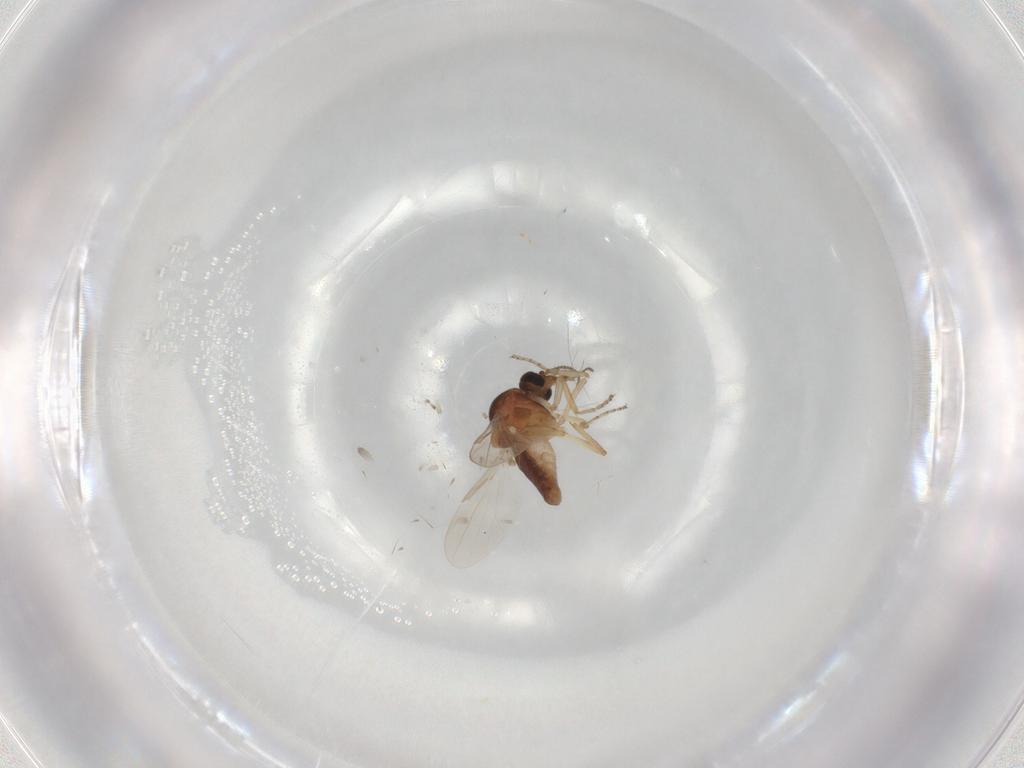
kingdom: Animalia
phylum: Arthropoda
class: Insecta
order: Diptera
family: Ceratopogonidae
